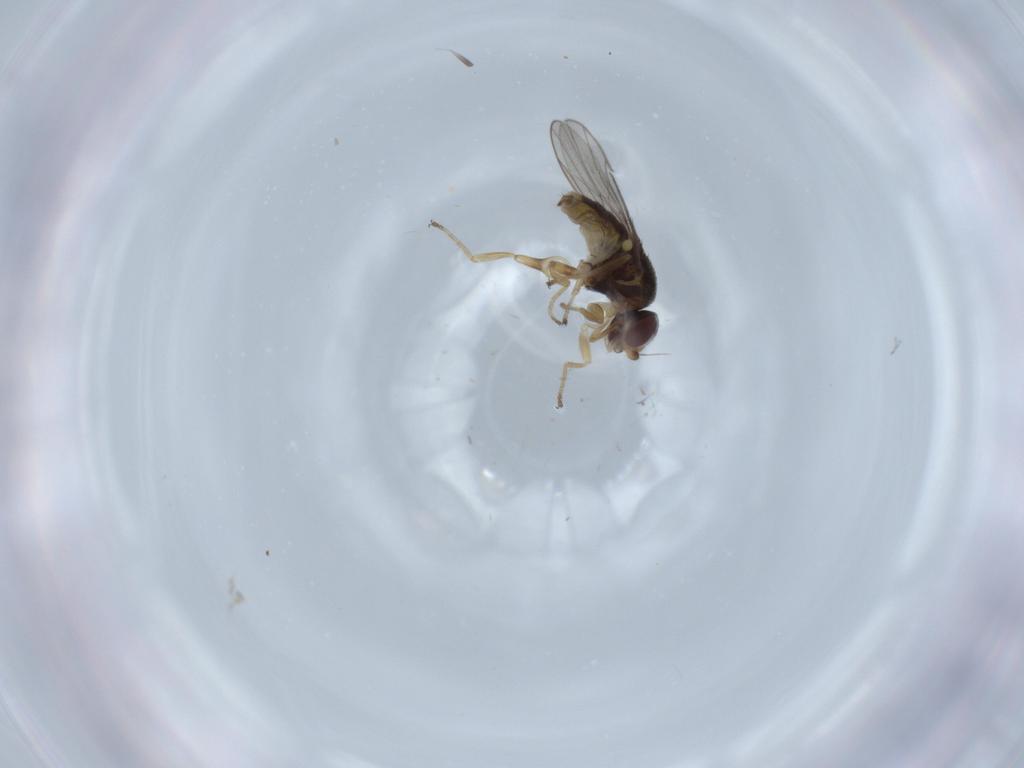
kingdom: Animalia
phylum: Arthropoda
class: Insecta
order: Diptera
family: Chloropidae
